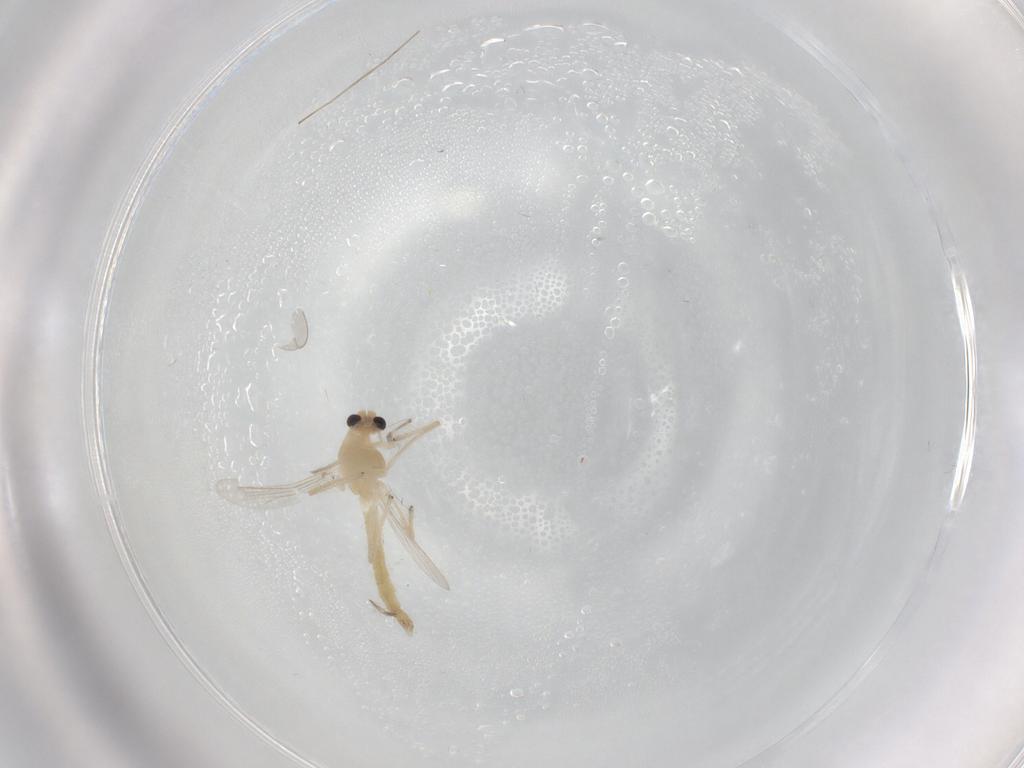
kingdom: Animalia
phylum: Arthropoda
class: Insecta
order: Diptera
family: Chironomidae
